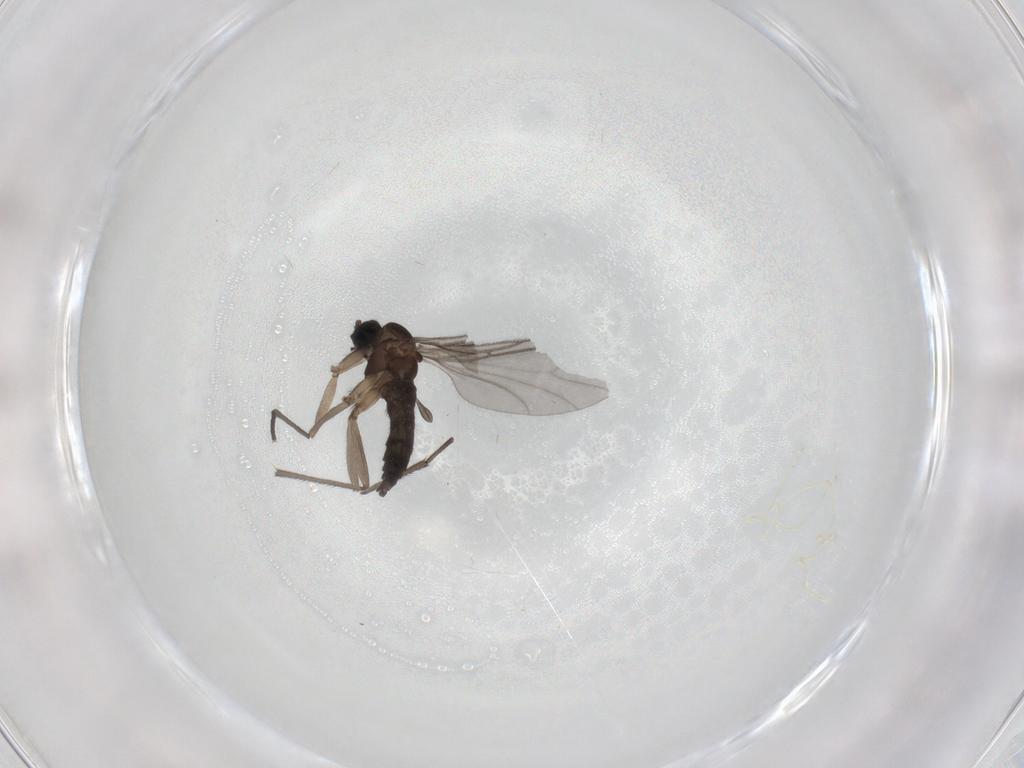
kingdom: Animalia
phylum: Arthropoda
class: Insecta
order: Diptera
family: Sciaridae
